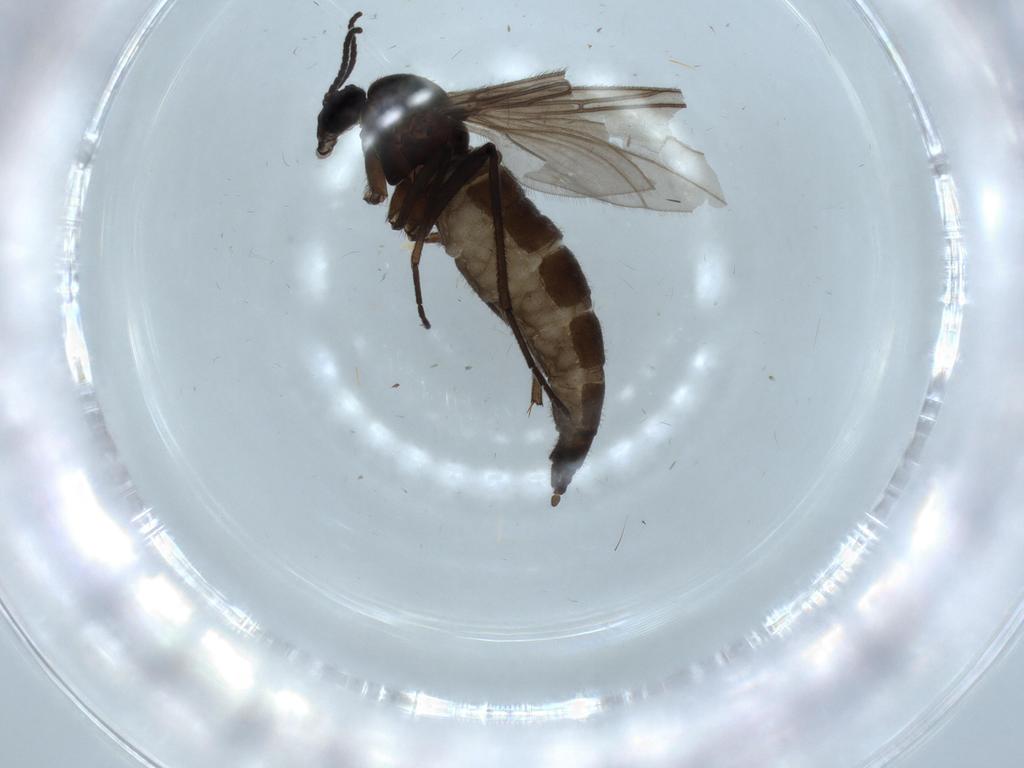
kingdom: Animalia
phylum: Arthropoda
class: Insecta
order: Diptera
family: Sciaridae
